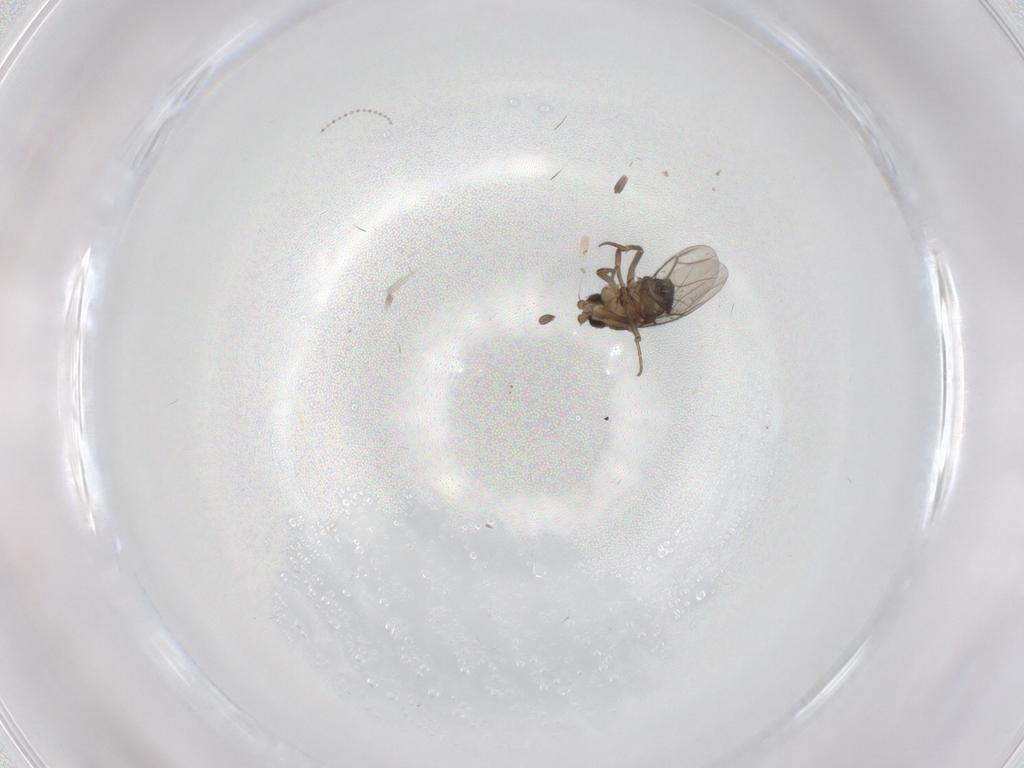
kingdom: Animalia
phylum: Arthropoda
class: Insecta
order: Diptera
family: Phoridae
